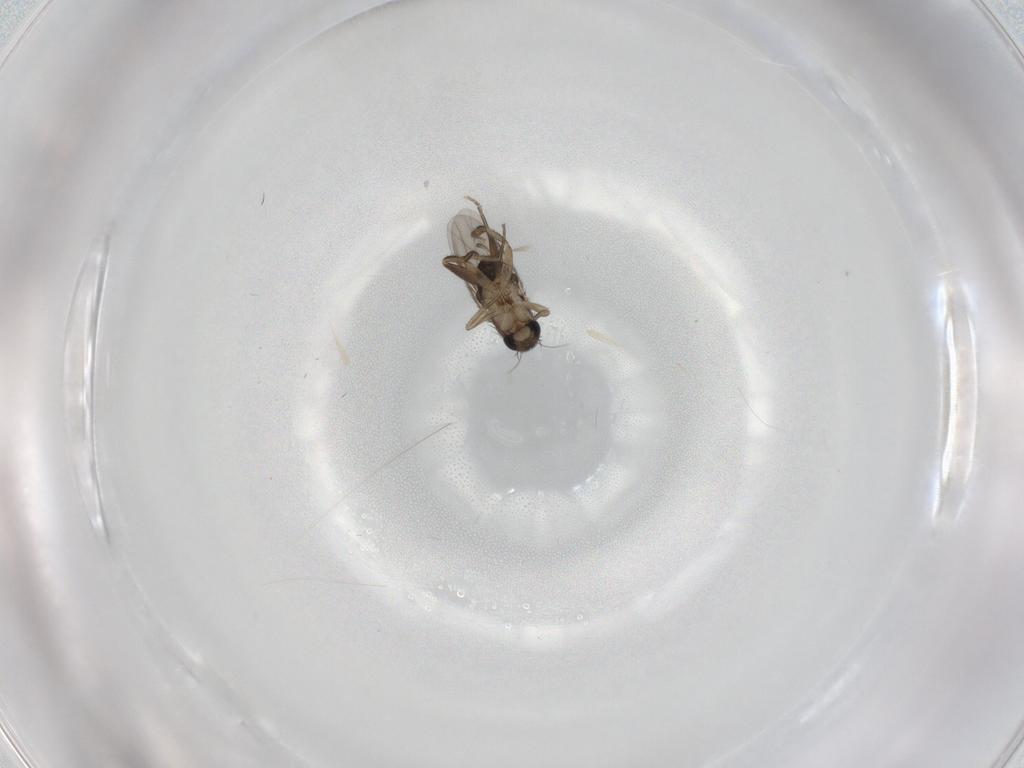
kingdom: Animalia
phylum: Arthropoda
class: Insecta
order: Diptera
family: Phoridae
